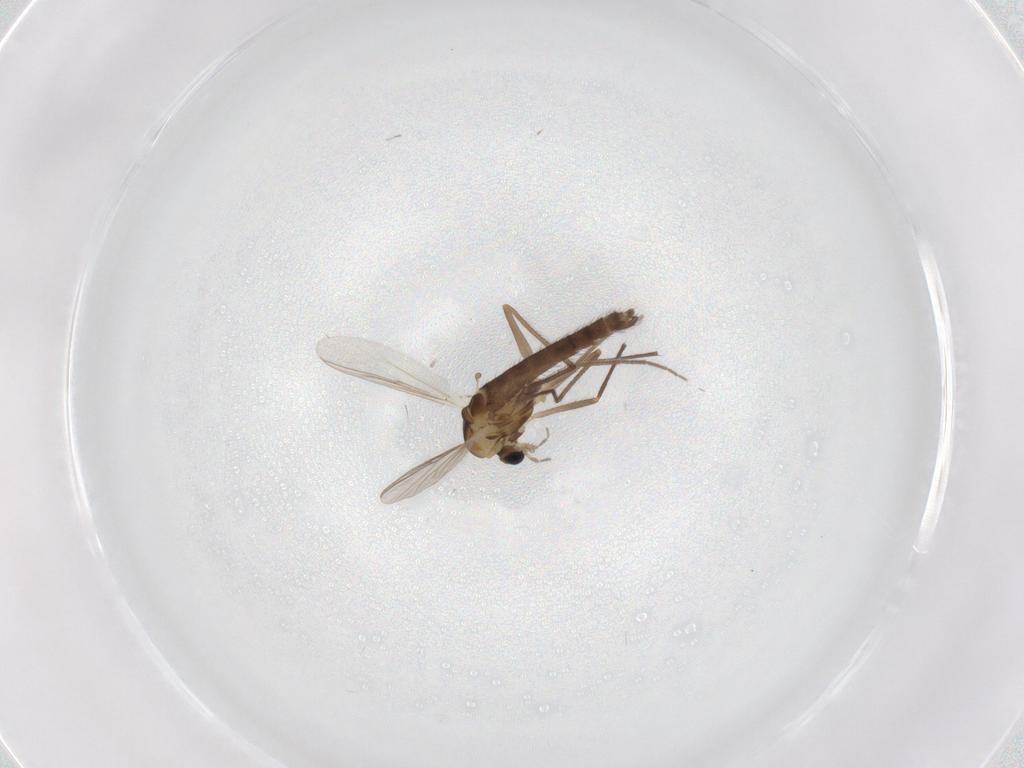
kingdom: Animalia
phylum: Arthropoda
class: Insecta
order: Diptera
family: Chironomidae
